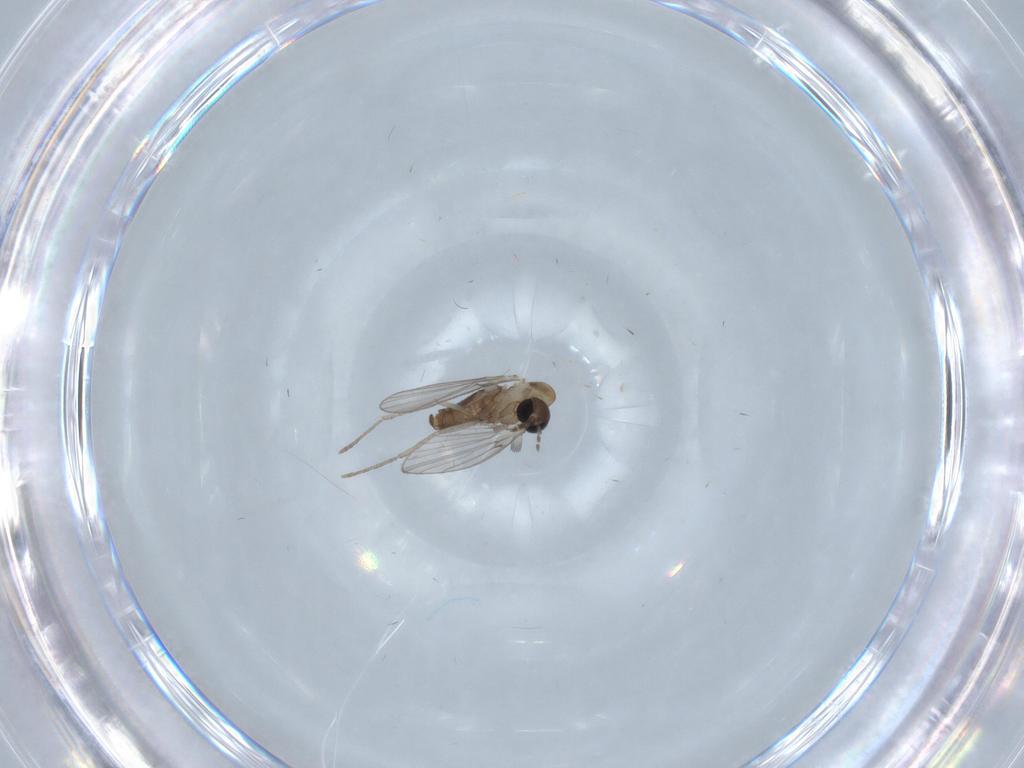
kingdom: Animalia
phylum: Arthropoda
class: Insecta
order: Diptera
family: Psychodidae
